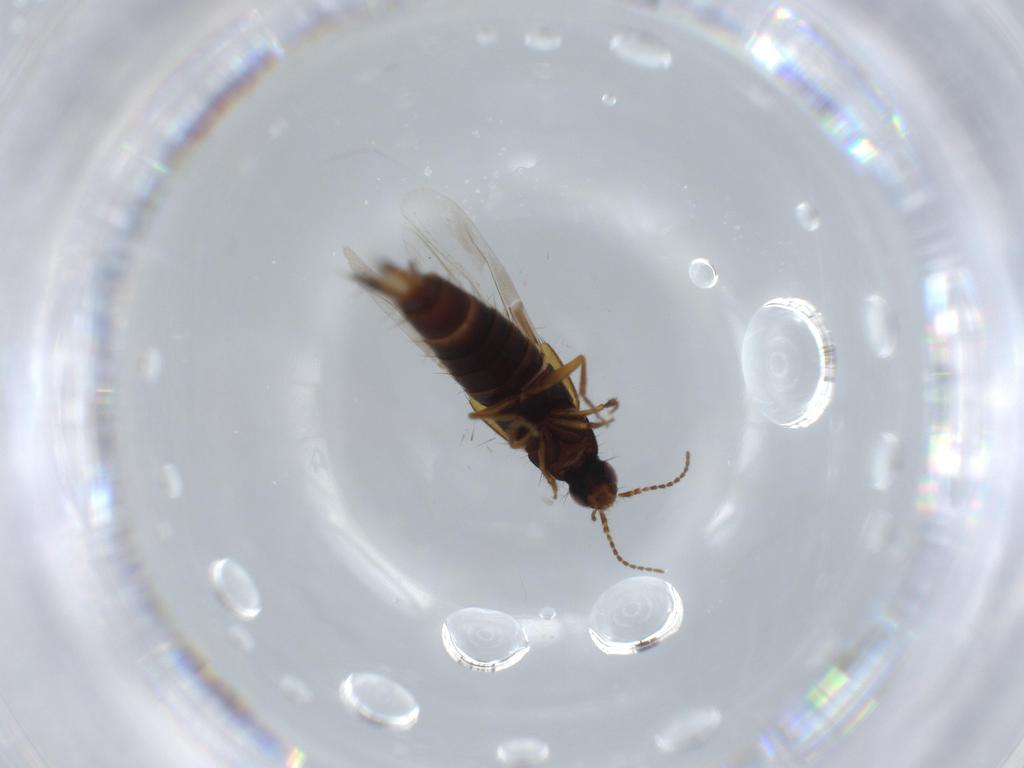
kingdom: Animalia
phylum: Arthropoda
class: Insecta
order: Coleoptera
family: Staphylinidae
